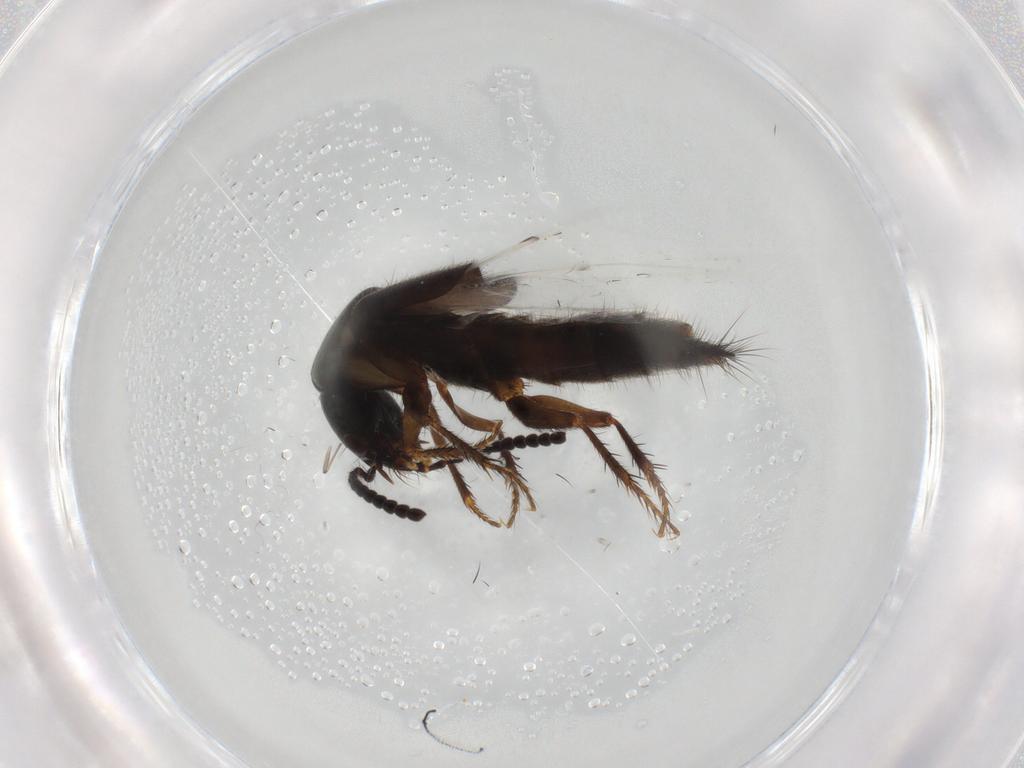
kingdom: Animalia
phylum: Arthropoda
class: Insecta
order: Coleoptera
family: Staphylinidae
